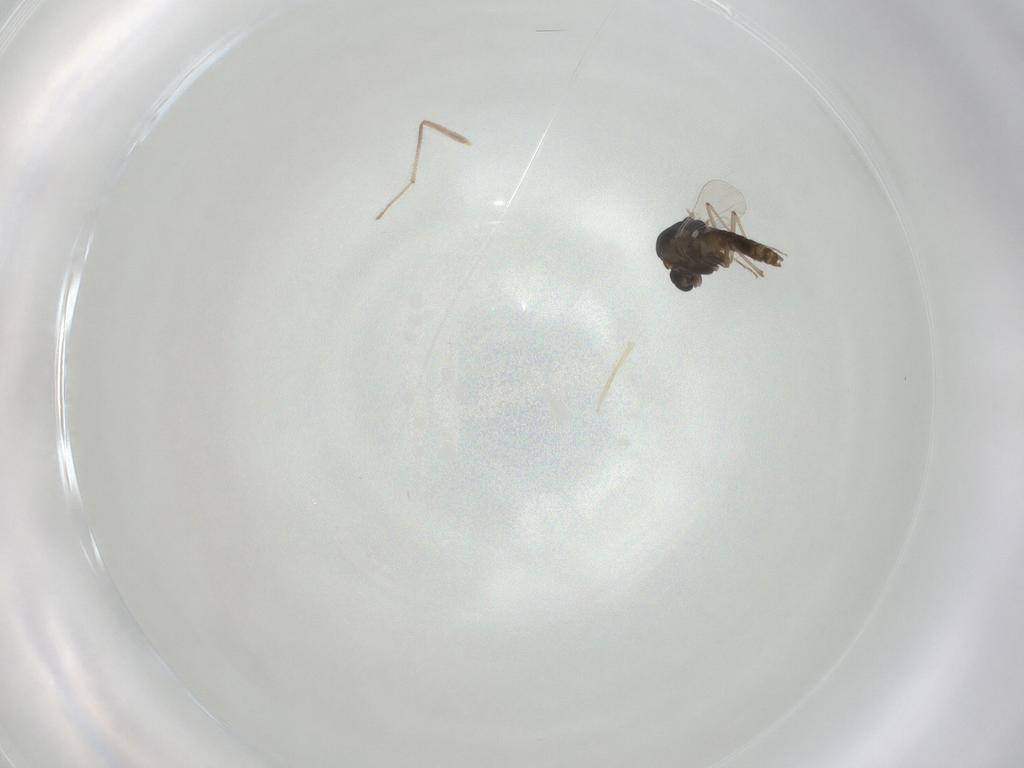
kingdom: Animalia
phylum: Arthropoda
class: Insecta
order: Diptera
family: Chironomidae
